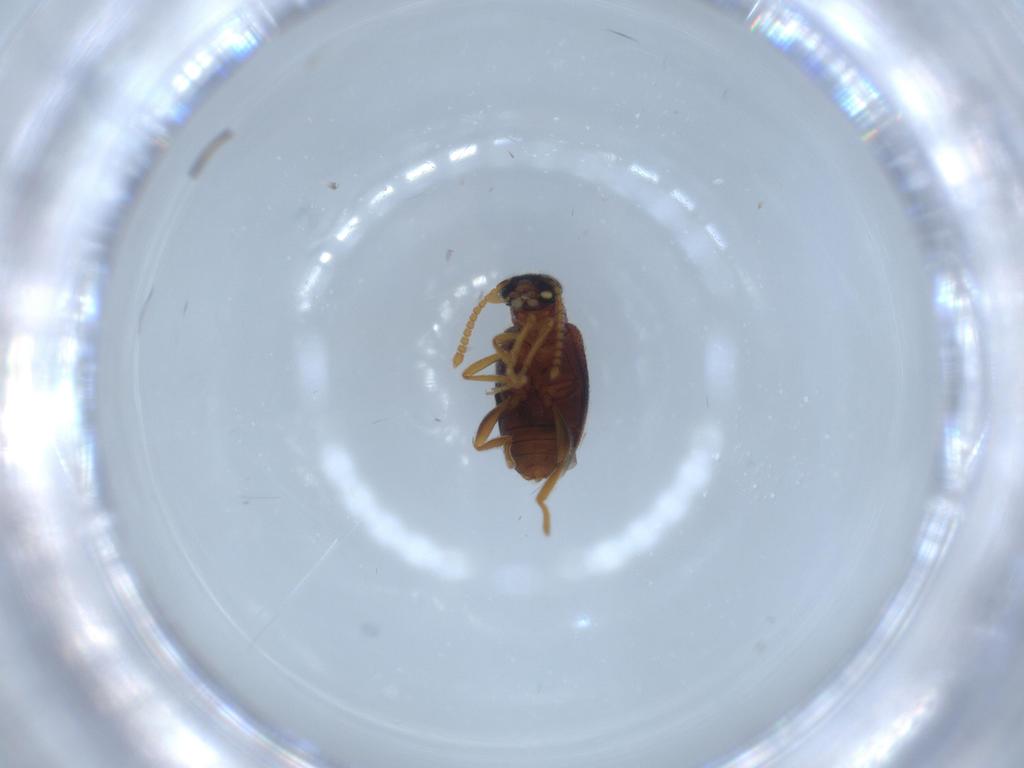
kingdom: Animalia
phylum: Arthropoda
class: Insecta
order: Coleoptera
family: Aderidae
